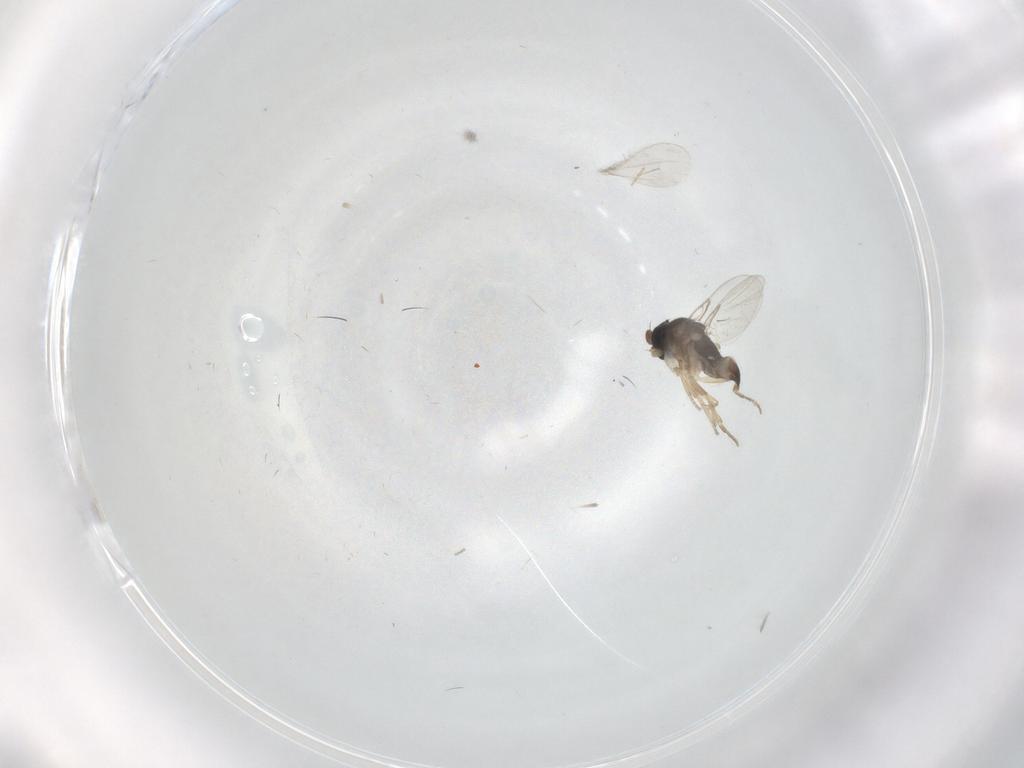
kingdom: Animalia
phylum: Arthropoda
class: Insecta
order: Diptera
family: Phoridae
